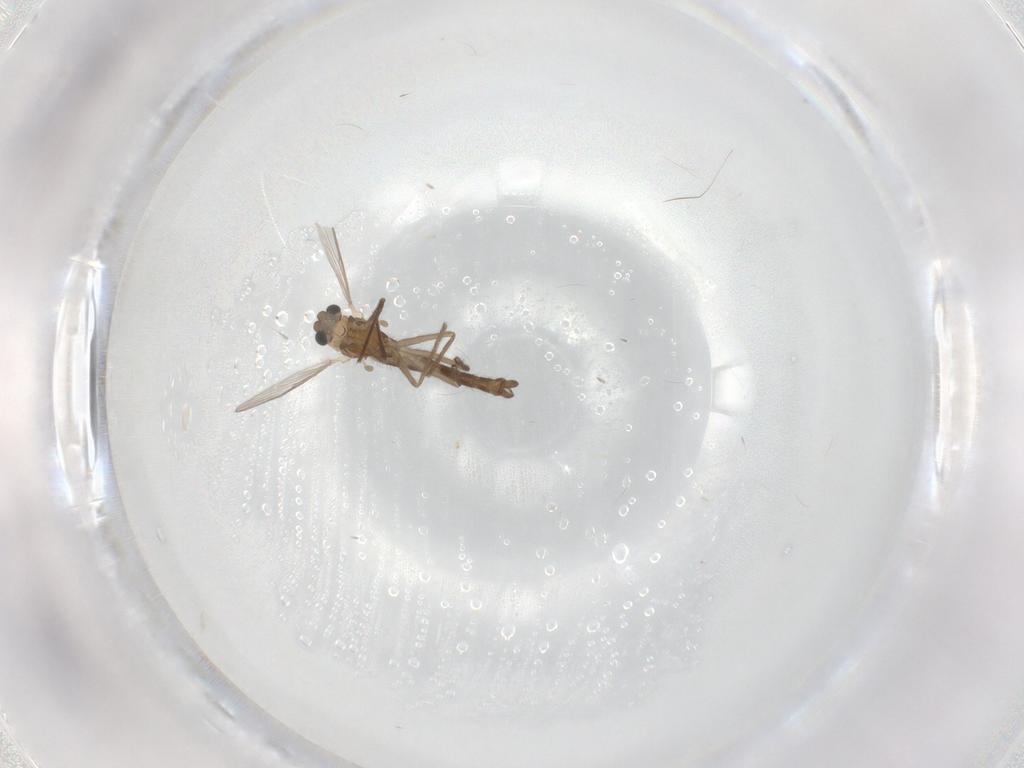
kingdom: Animalia
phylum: Arthropoda
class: Insecta
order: Diptera
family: Chironomidae
